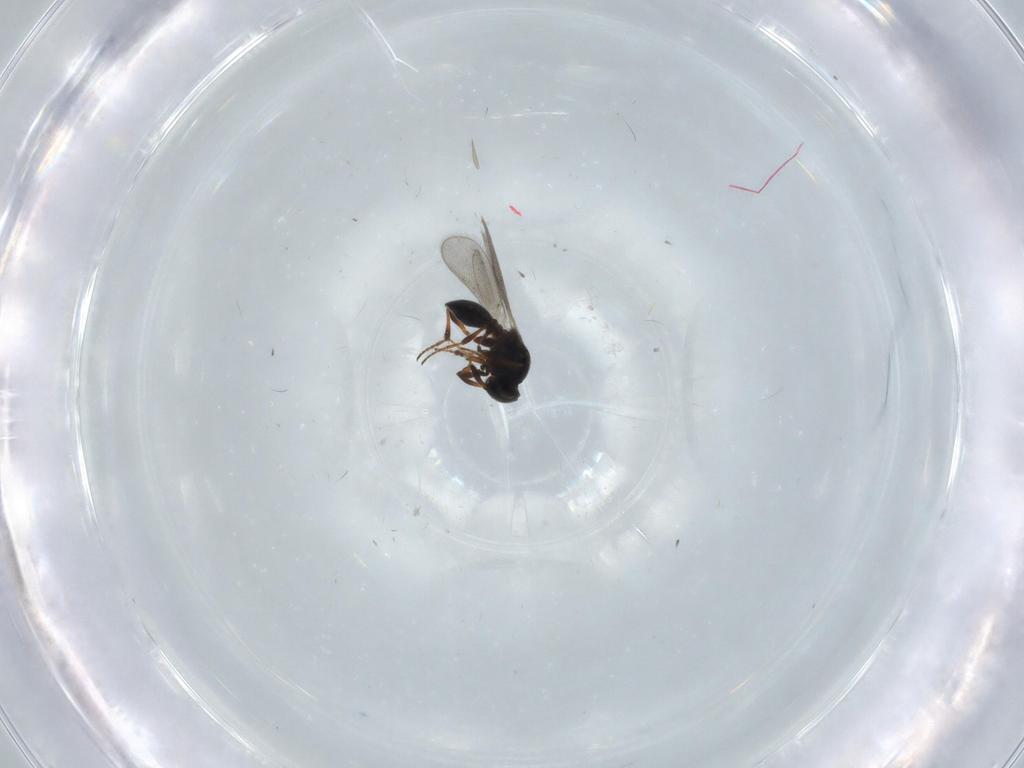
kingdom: Animalia
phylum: Arthropoda
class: Insecta
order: Hymenoptera
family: Platygastridae
